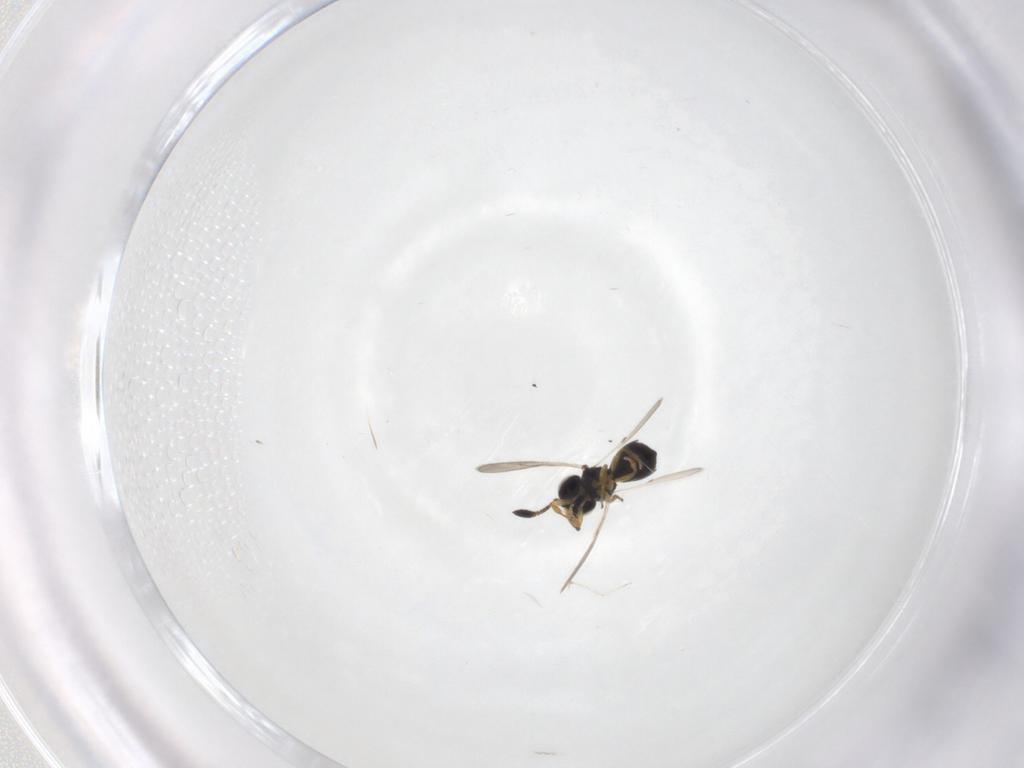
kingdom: Animalia
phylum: Arthropoda
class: Insecta
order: Hymenoptera
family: Scelionidae
